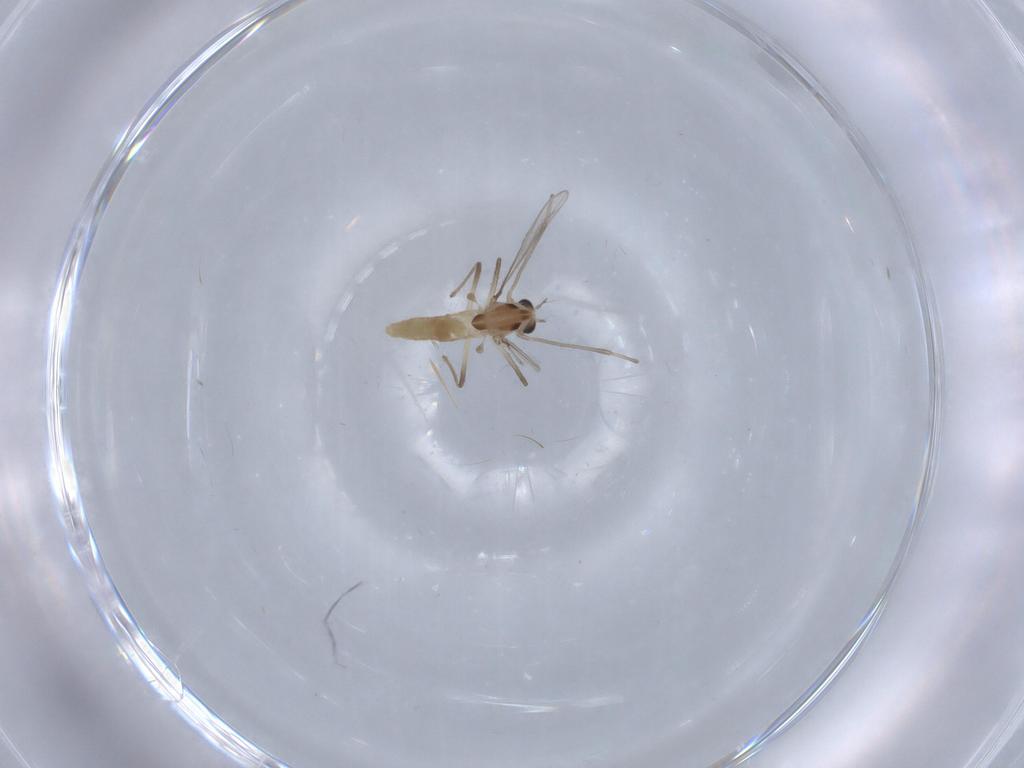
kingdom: Animalia
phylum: Arthropoda
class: Insecta
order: Diptera
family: Chironomidae
